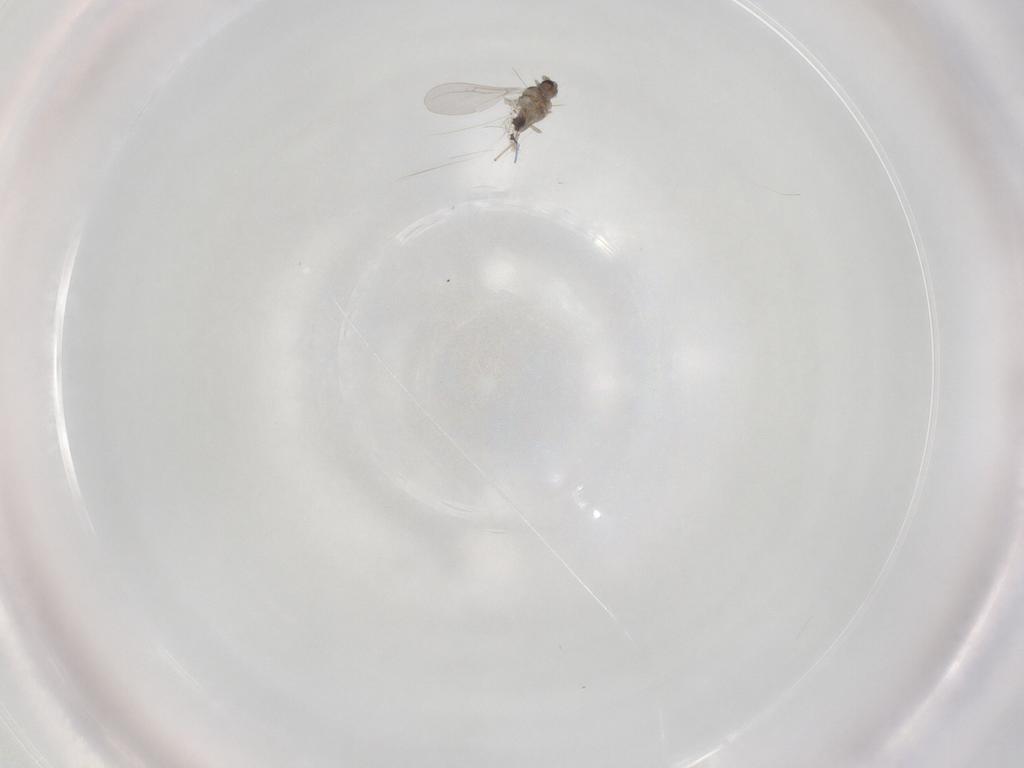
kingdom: Animalia
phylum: Arthropoda
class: Insecta
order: Diptera
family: Cecidomyiidae
